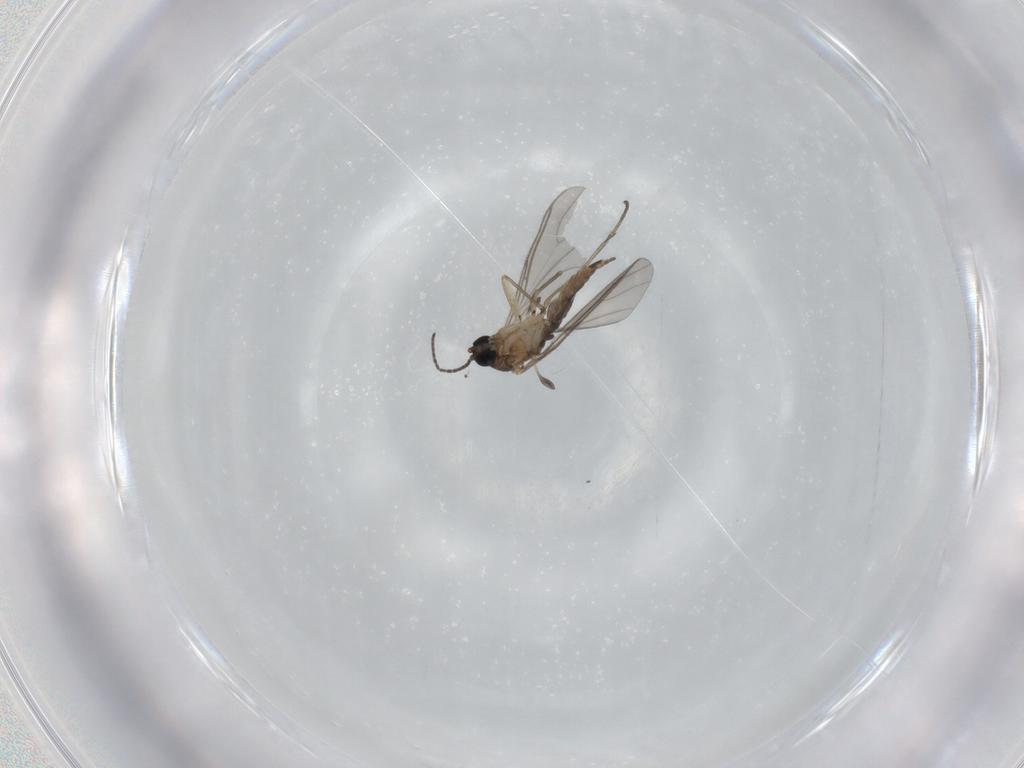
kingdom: Animalia
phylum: Arthropoda
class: Insecta
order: Diptera
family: Sciaridae
